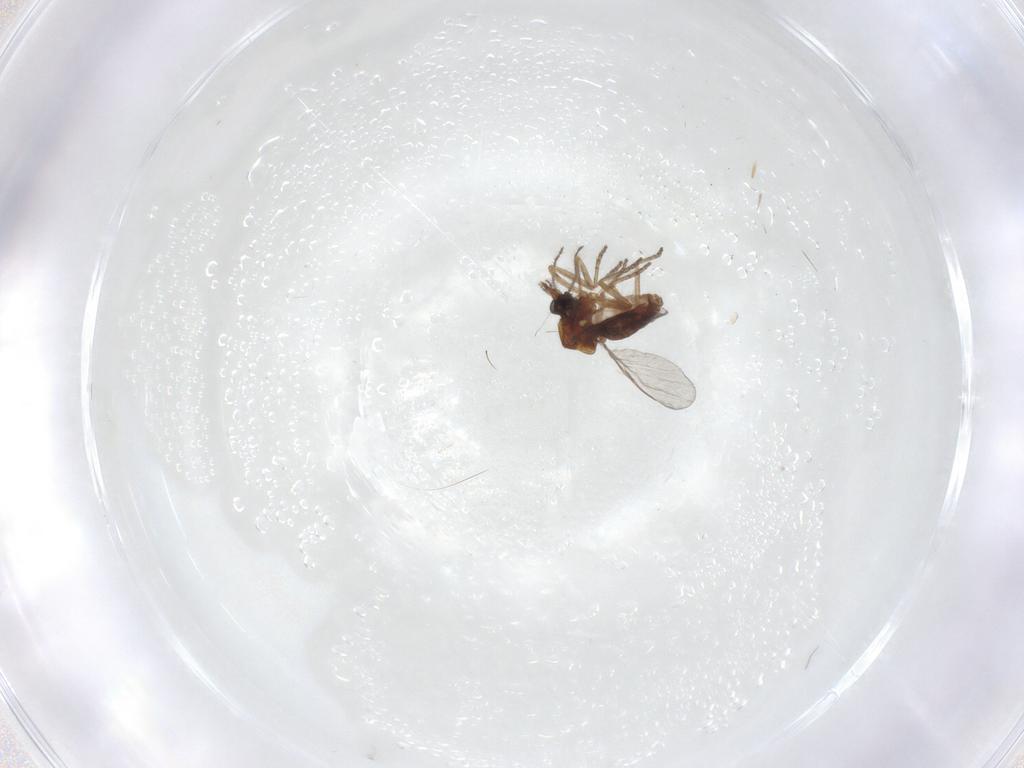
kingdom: Animalia
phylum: Arthropoda
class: Insecta
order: Diptera
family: Ceratopogonidae
